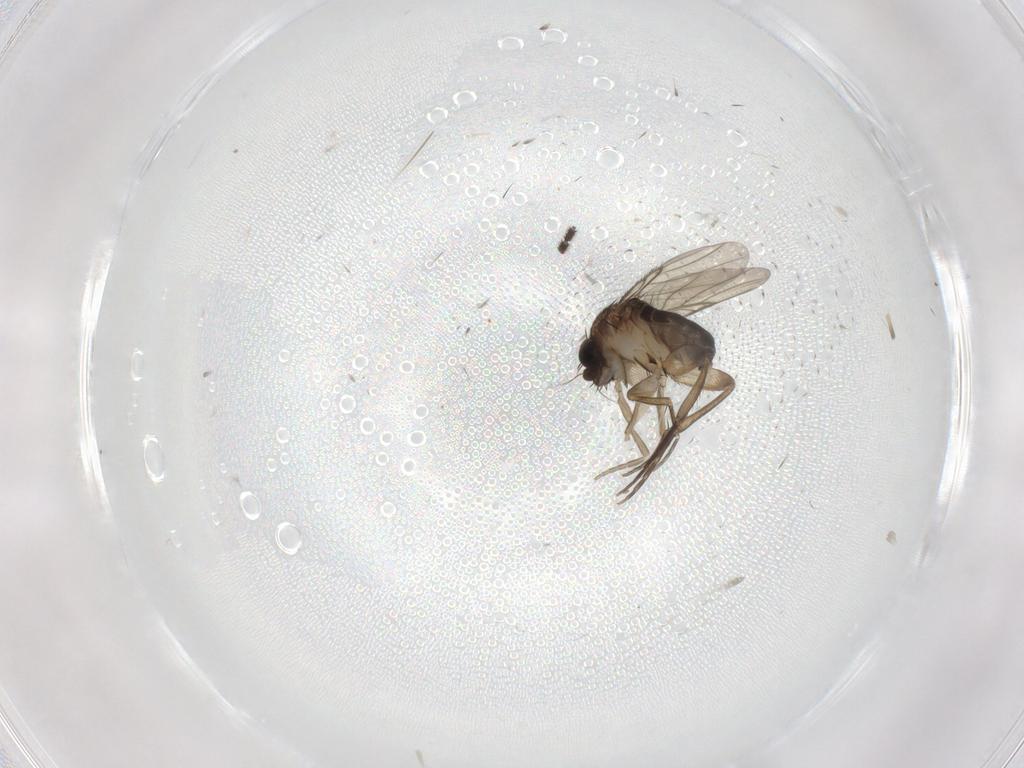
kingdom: Animalia
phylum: Arthropoda
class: Insecta
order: Diptera
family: Phoridae
